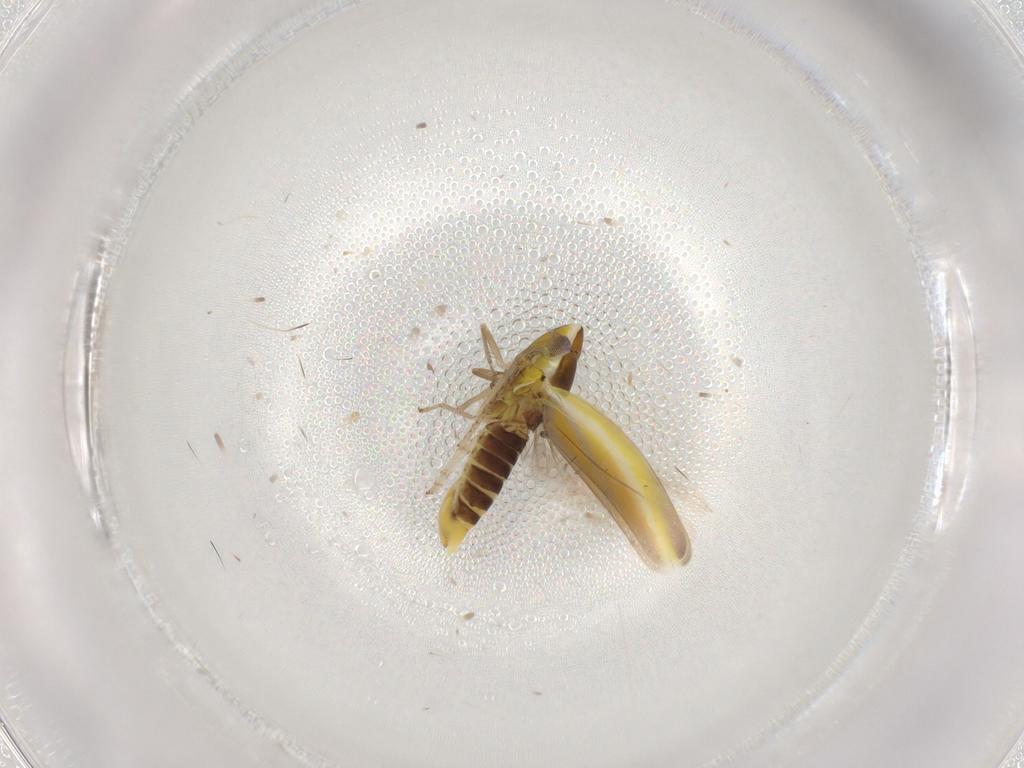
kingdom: Animalia
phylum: Arthropoda
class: Insecta
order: Hemiptera
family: Cicadellidae
